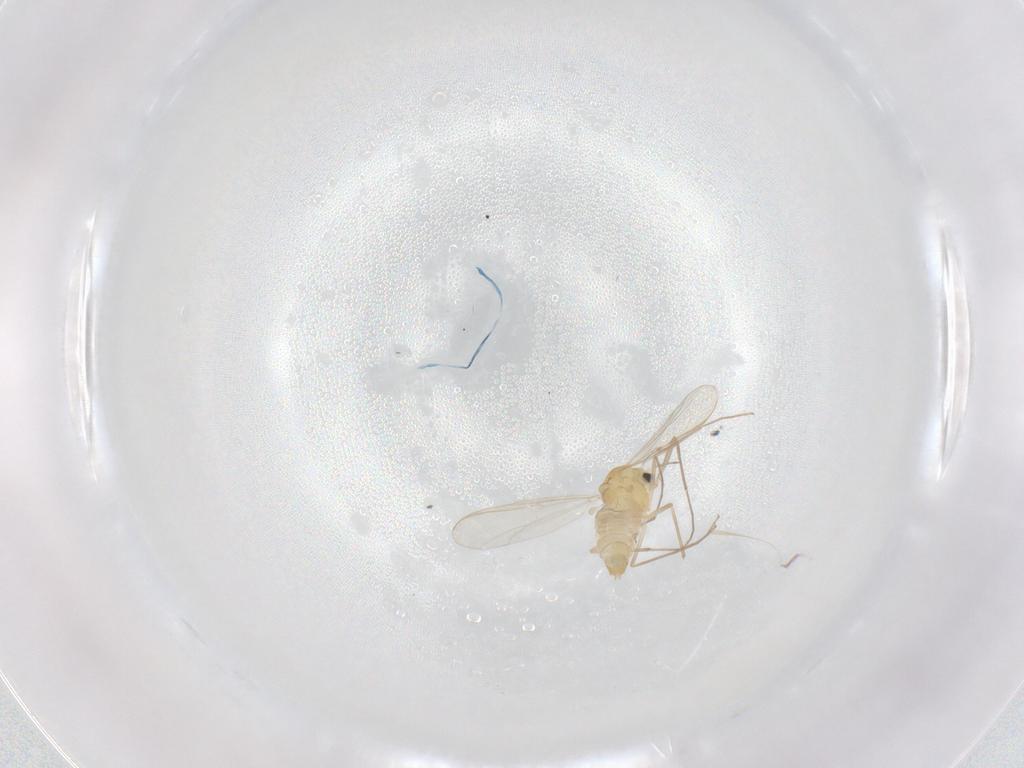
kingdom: Animalia
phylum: Arthropoda
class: Insecta
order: Diptera
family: Chironomidae
